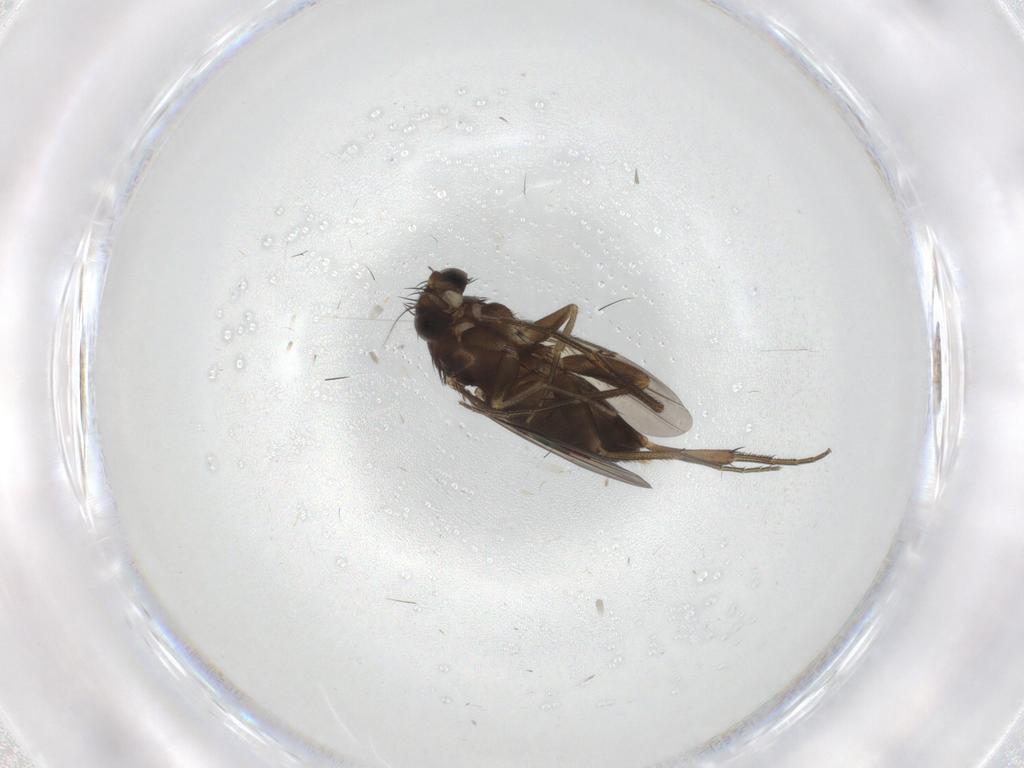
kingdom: Animalia
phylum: Arthropoda
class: Insecta
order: Diptera
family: Phoridae
